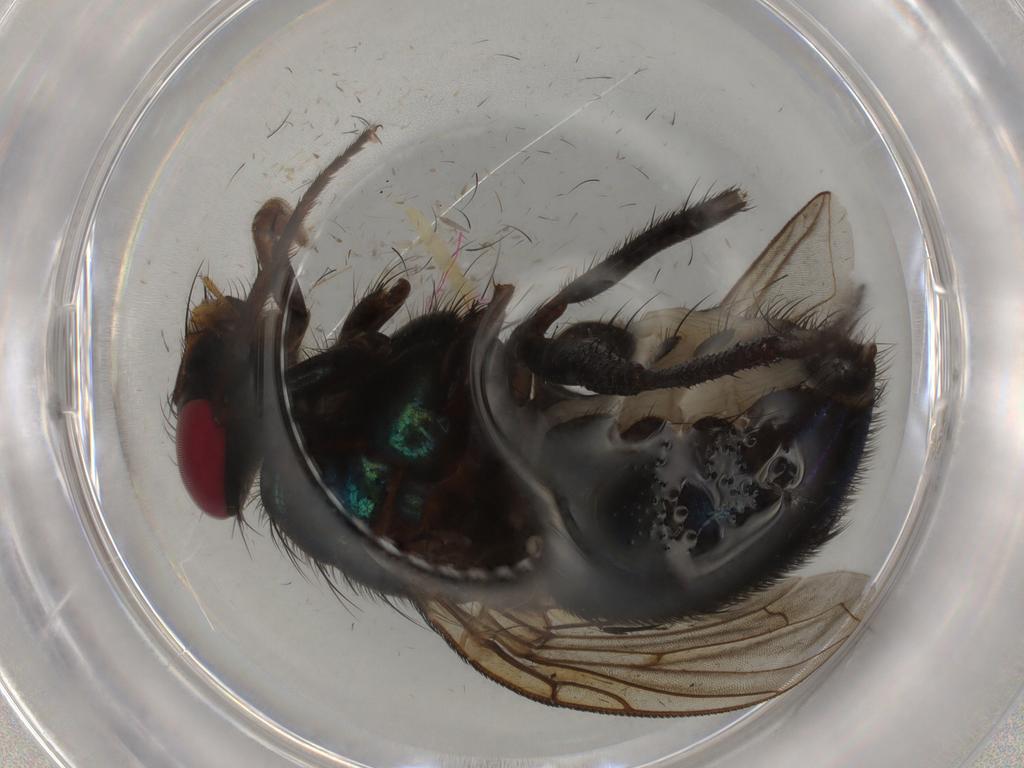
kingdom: Animalia
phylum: Arthropoda
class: Insecta
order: Diptera
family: Calliphoridae
